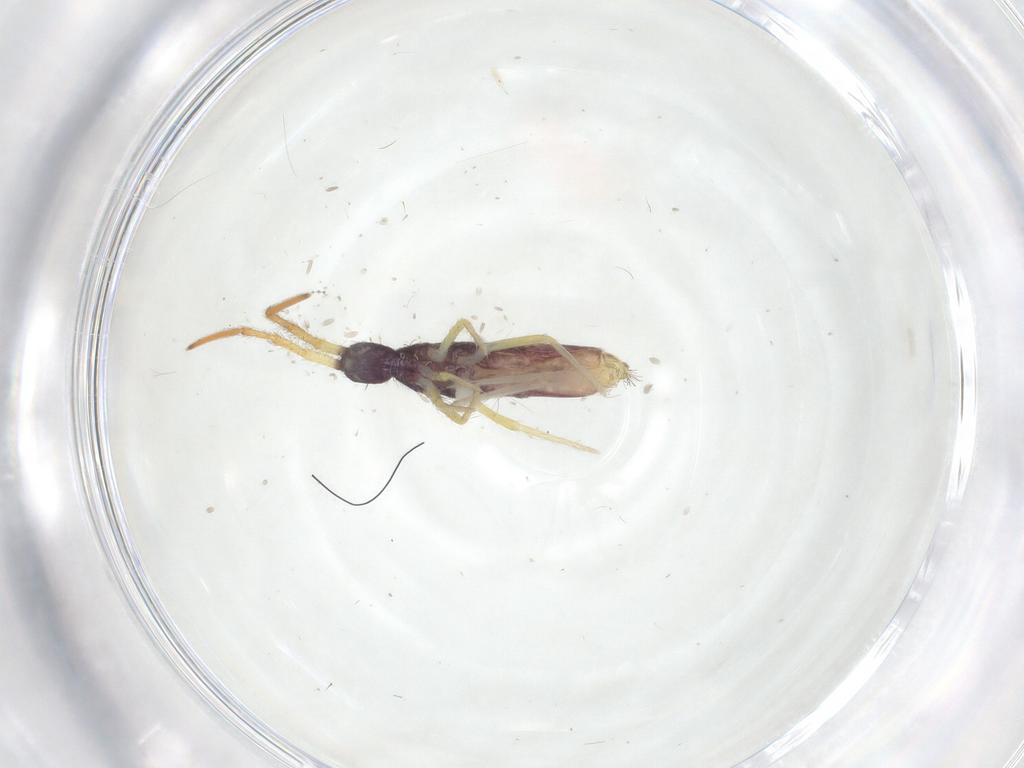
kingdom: Animalia
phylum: Arthropoda
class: Collembola
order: Entomobryomorpha
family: Entomobryidae
